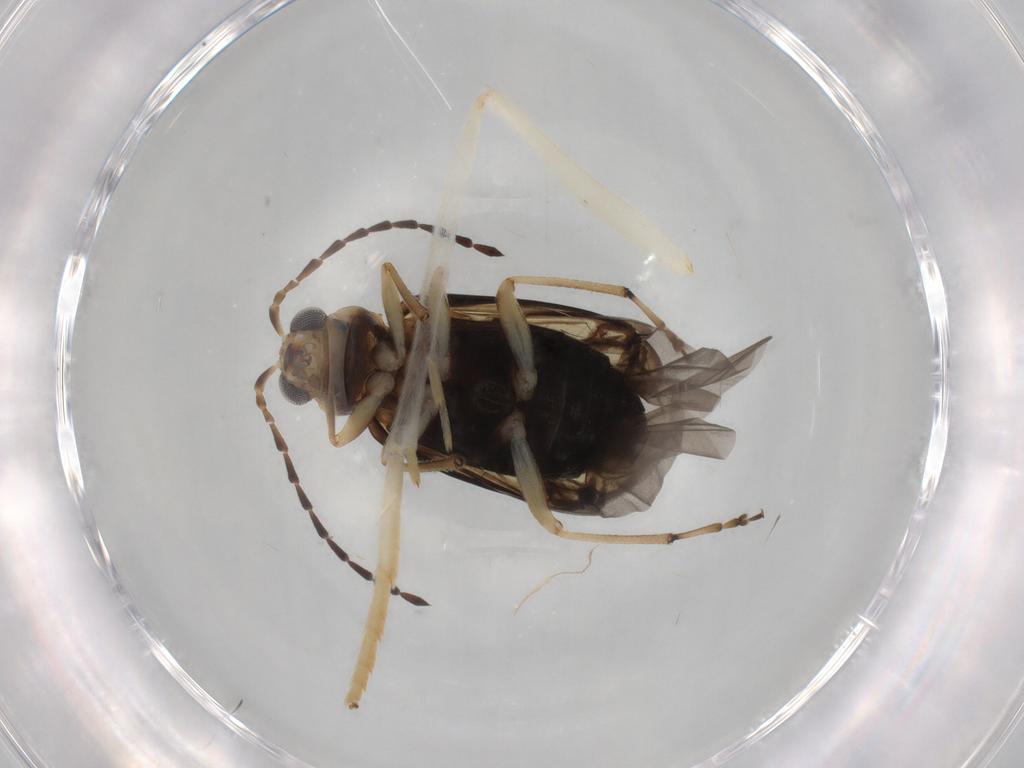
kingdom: Animalia
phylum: Arthropoda
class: Insecta
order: Coleoptera
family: Chrysomelidae
